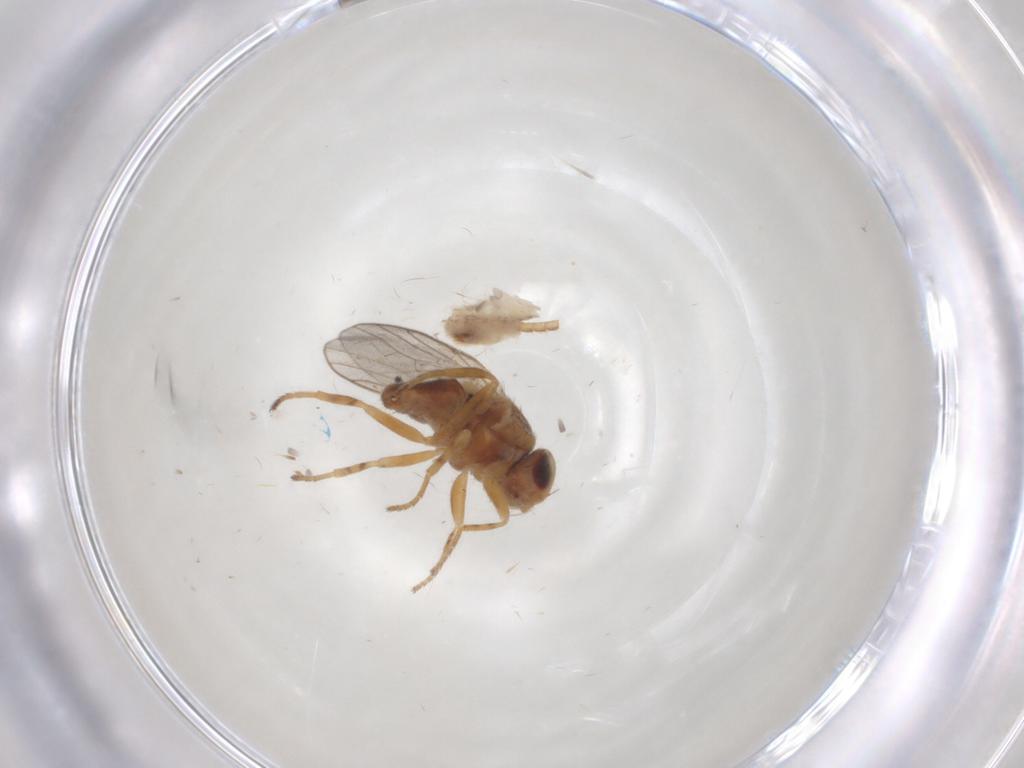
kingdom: Animalia
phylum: Arthropoda
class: Insecta
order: Diptera
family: Chloropidae
